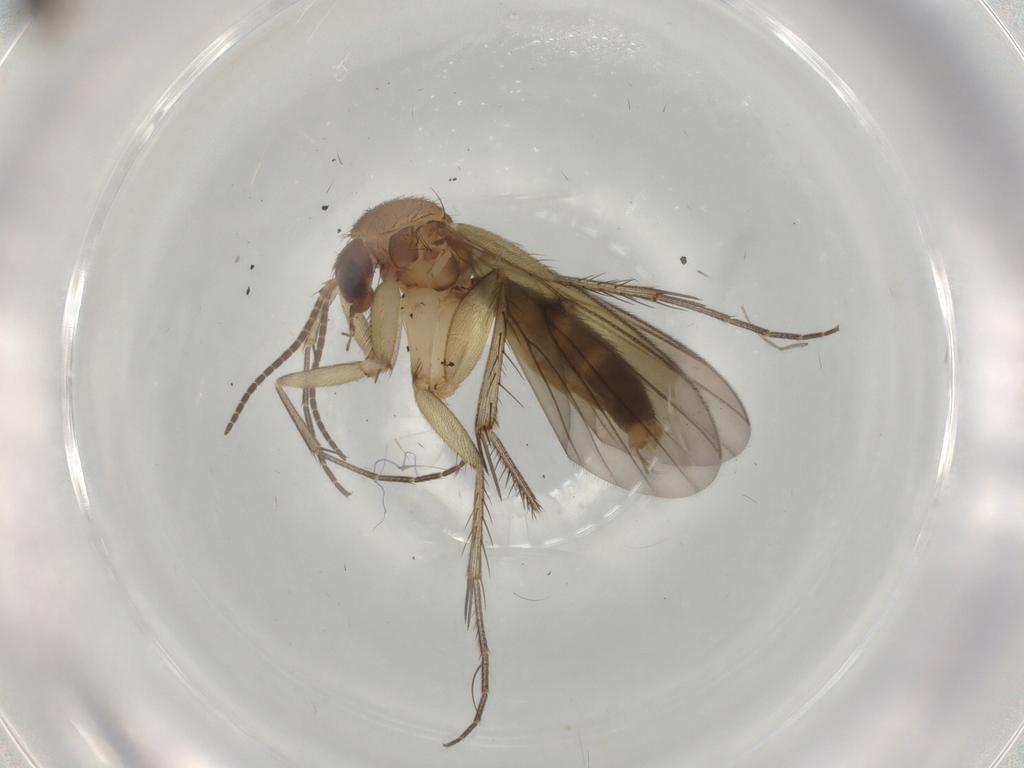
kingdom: Animalia
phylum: Arthropoda
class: Insecta
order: Diptera
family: Mycetophilidae
